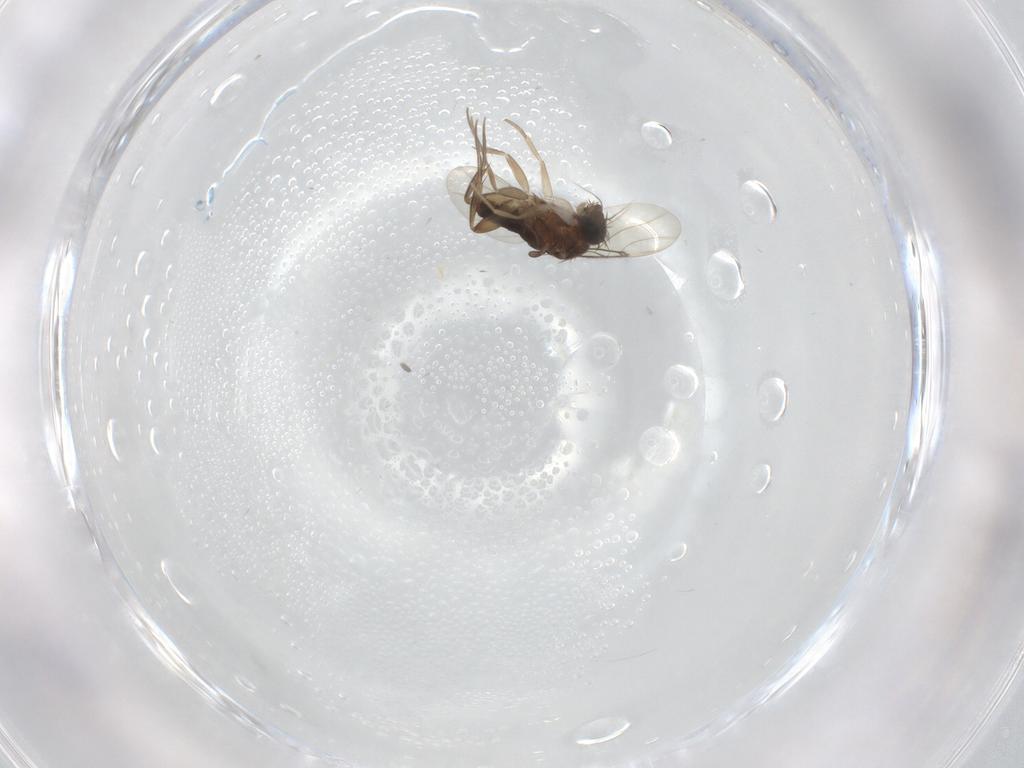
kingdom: Animalia
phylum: Arthropoda
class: Insecta
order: Diptera
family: Phoridae
